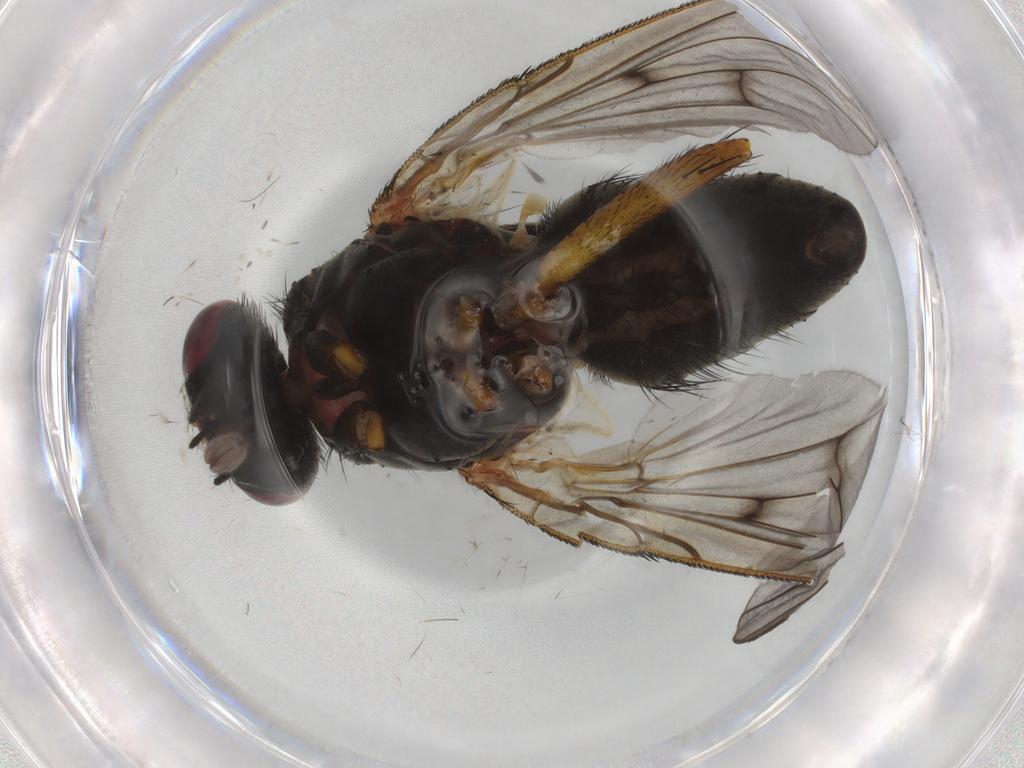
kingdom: Animalia
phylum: Arthropoda
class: Insecta
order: Diptera
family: Muscidae
